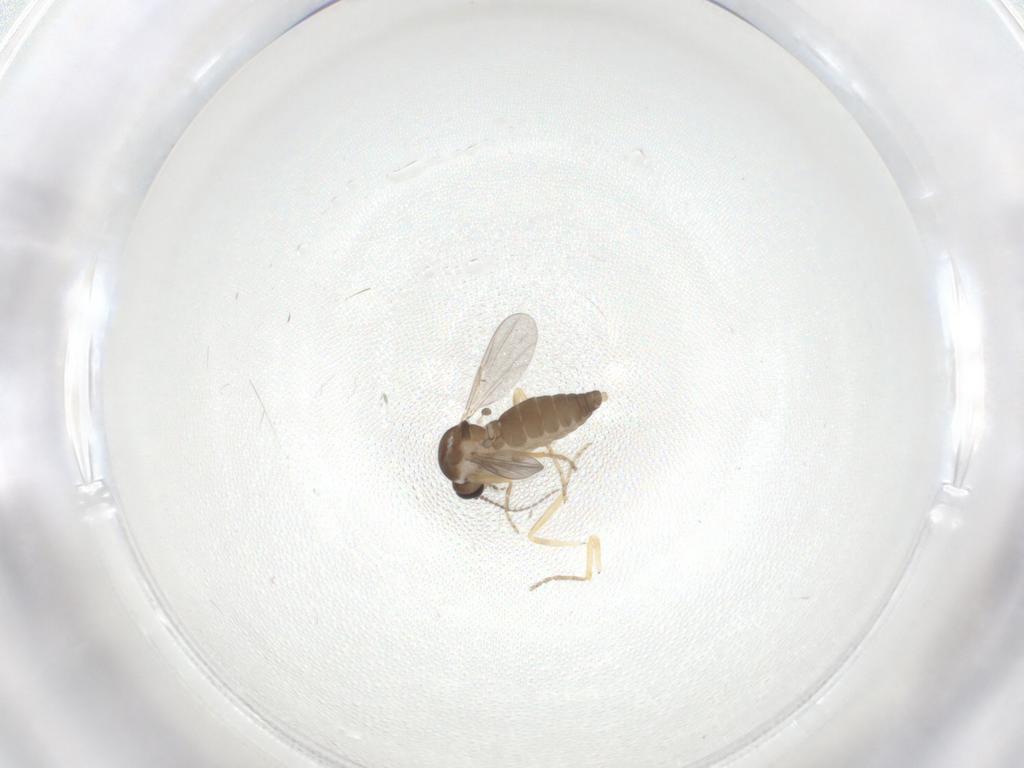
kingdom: Animalia
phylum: Arthropoda
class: Insecta
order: Diptera
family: Ceratopogonidae
